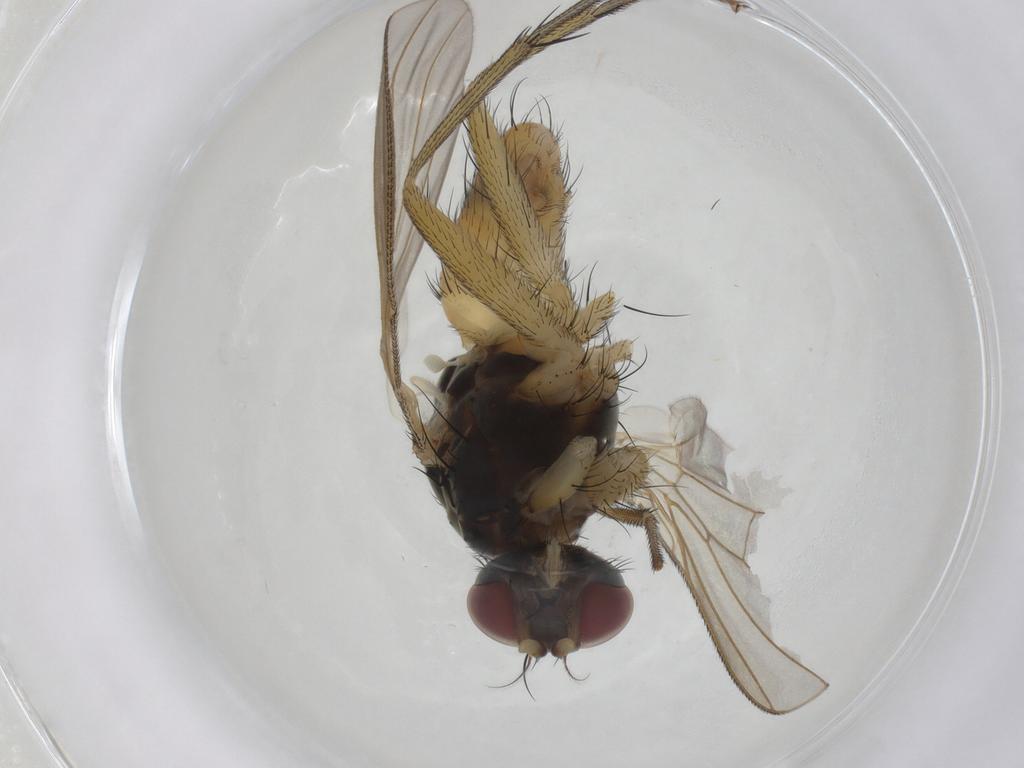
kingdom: Animalia
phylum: Arthropoda
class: Insecta
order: Diptera
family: Muscidae
